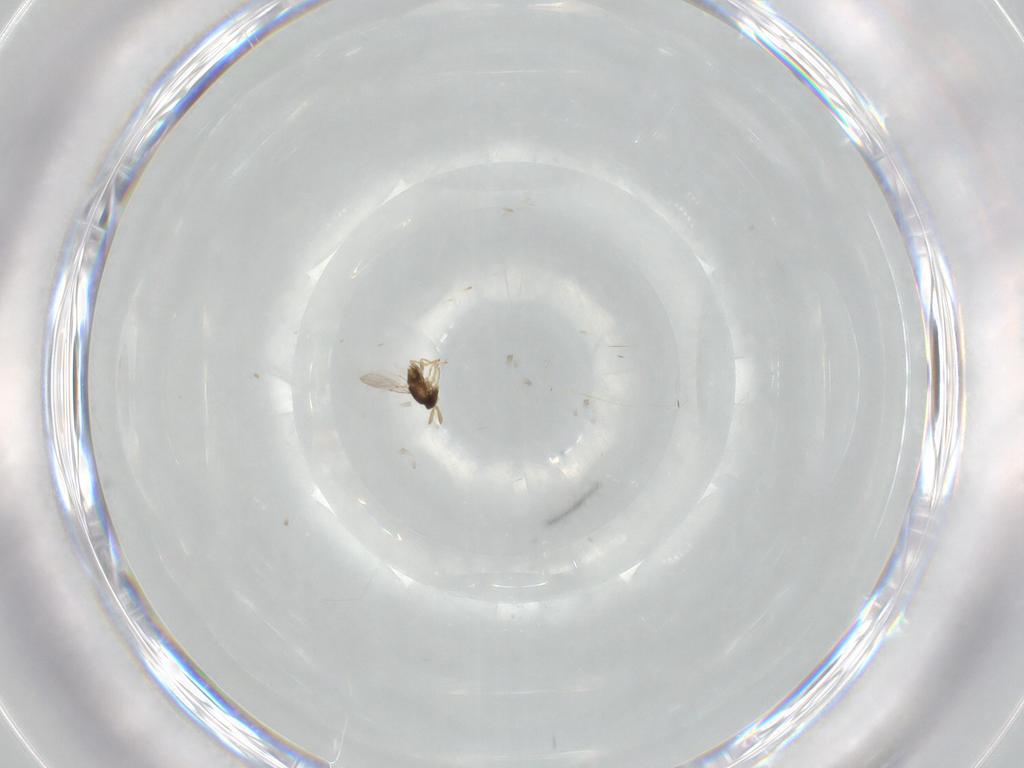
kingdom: Animalia
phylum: Arthropoda
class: Insecta
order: Hymenoptera
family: Encyrtidae
